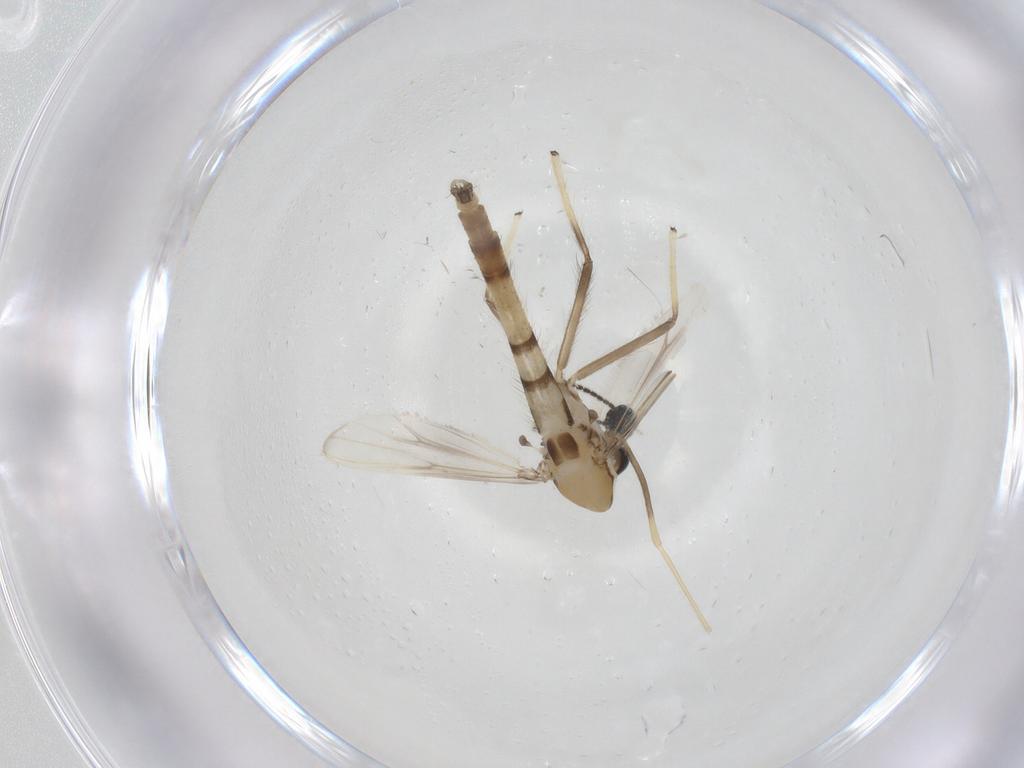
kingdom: Animalia
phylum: Arthropoda
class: Insecta
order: Diptera
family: Chironomidae
